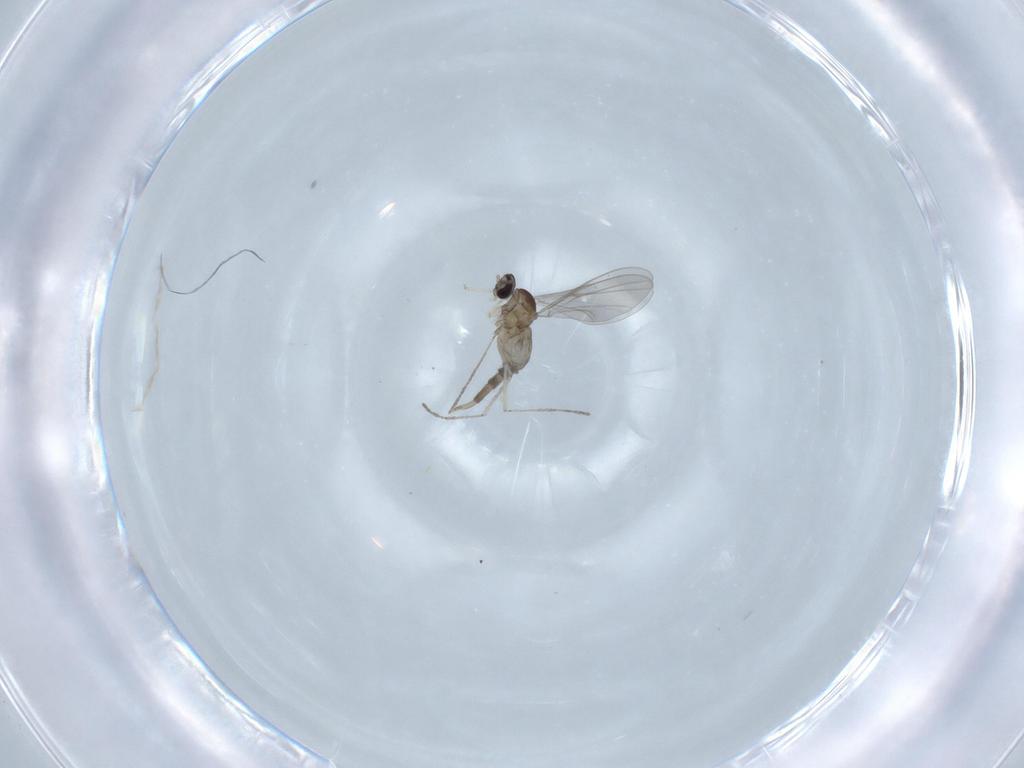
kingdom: Animalia
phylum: Arthropoda
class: Insecta
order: Diptera
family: Cecidomyiidae
